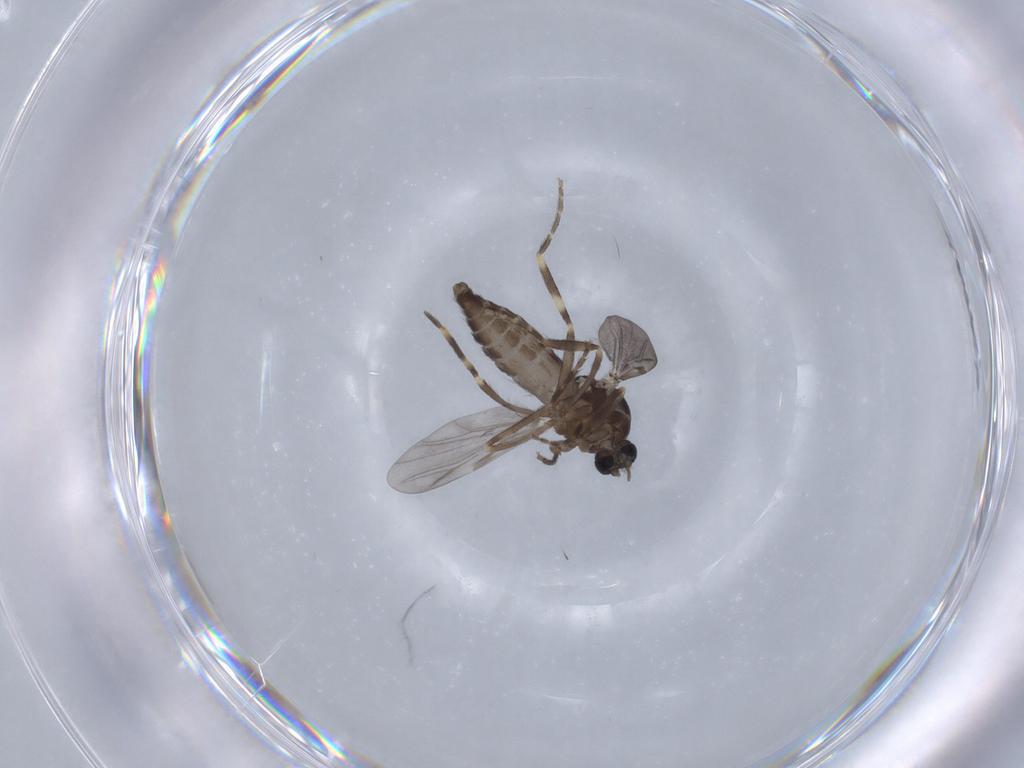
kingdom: Animalia
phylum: Arthropoda
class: Insecta
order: Diptera
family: Ceratopogonidae
